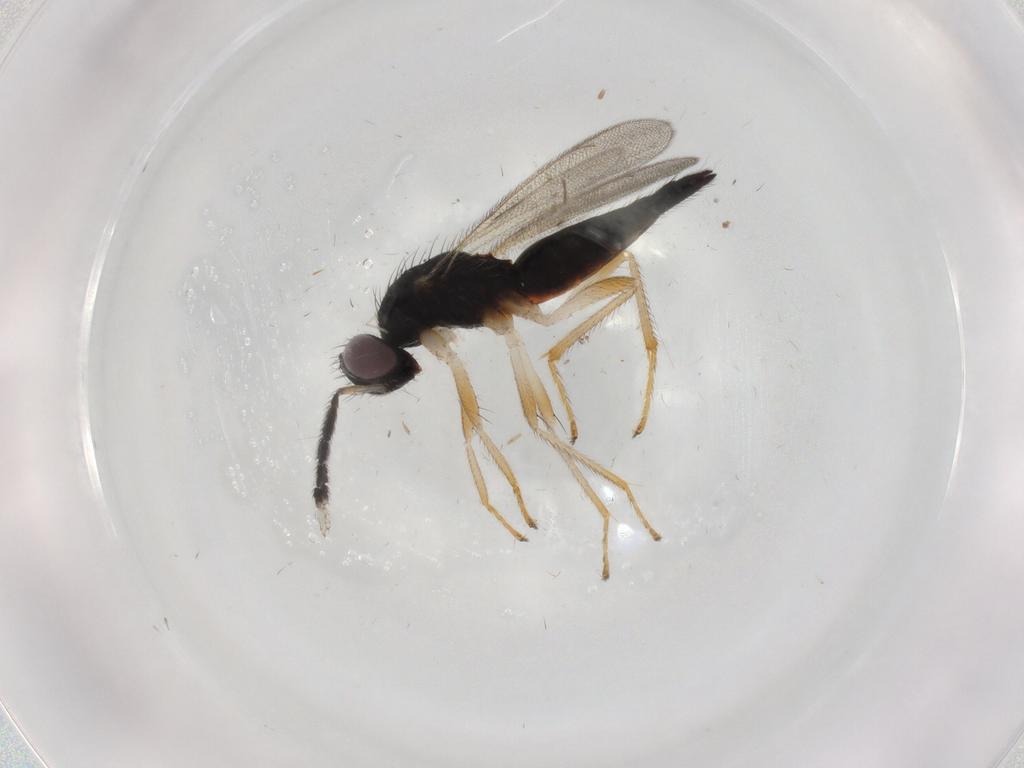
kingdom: Animalia
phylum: Arthropoda
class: Insecta
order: Hymenoptera
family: Eulophidae
